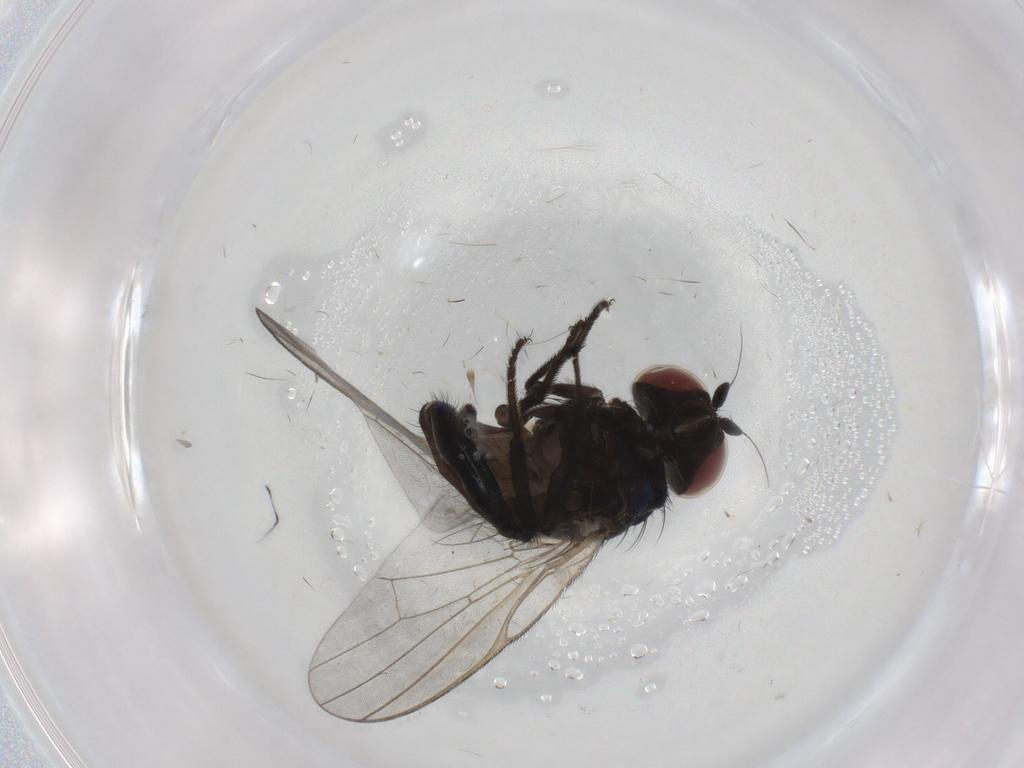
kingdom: Animalia
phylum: Arthropoda
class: Insecta
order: Diptera
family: Lonchaeidae
